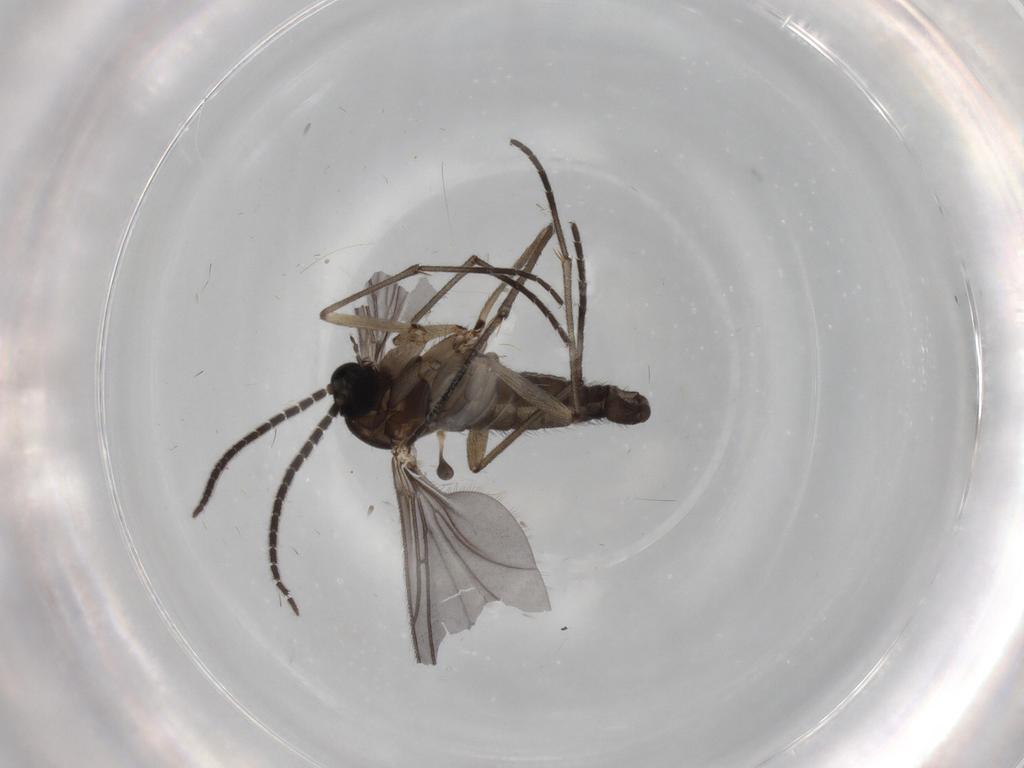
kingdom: Animalia
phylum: Arthropoda
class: Insecta
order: Diptera
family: Sciaridae
